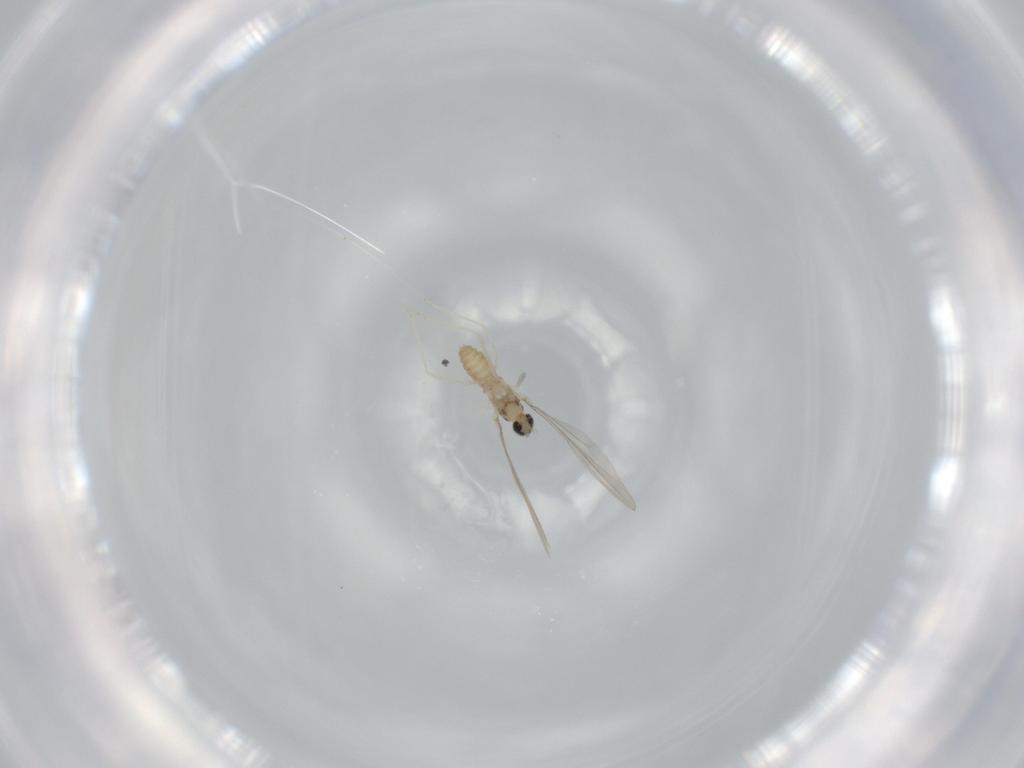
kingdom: Animalia
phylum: Arthropoda
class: Insecta
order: Diptera
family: Cecidomyiidae
